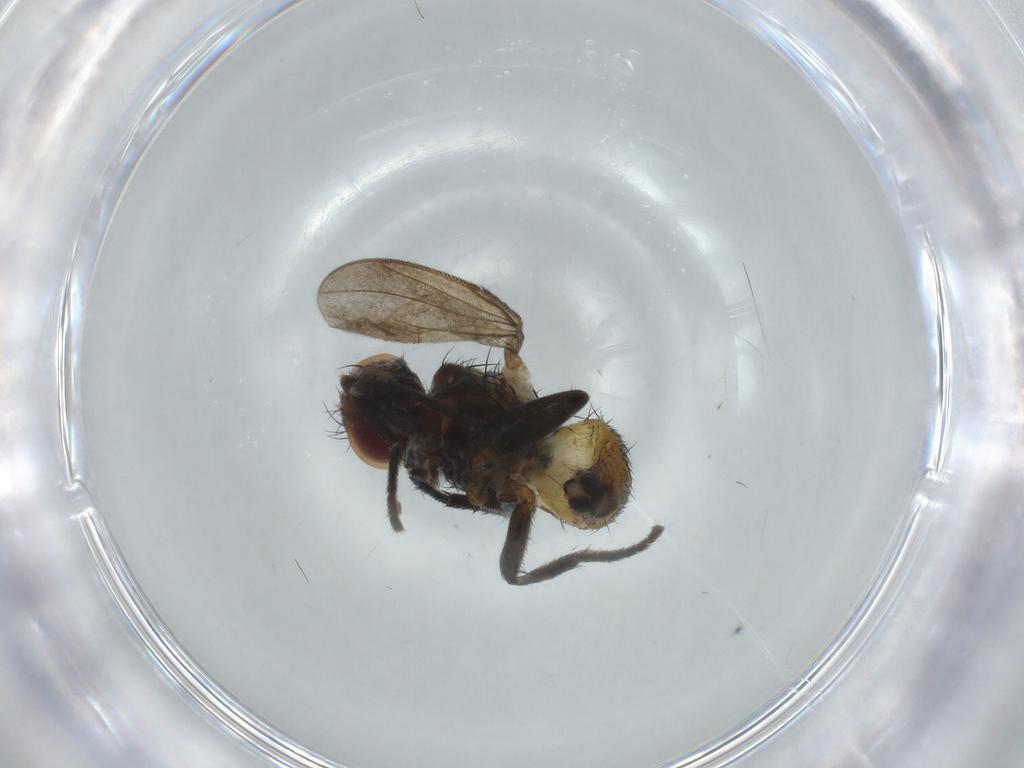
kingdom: Animalia
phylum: Arthropoda
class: Insecta
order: Diptera
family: Anthomyiidae
